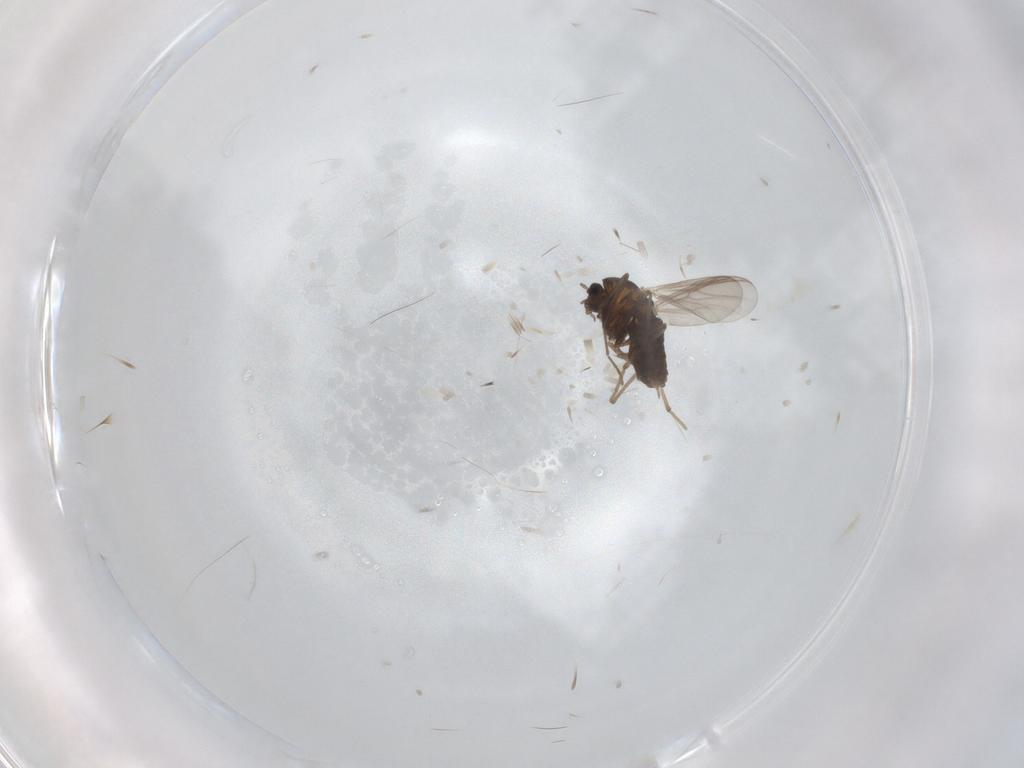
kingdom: Animalia
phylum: Arthropoda
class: Insecta
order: Diptera
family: Chironomidae
